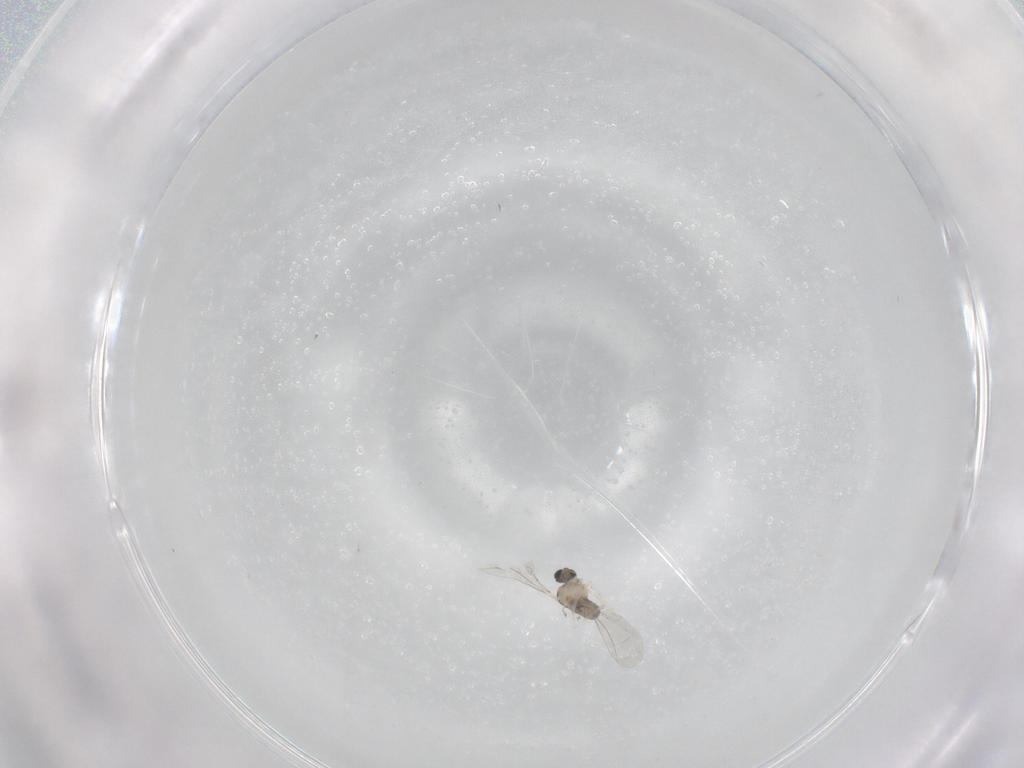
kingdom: Animalia
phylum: Arthropoda
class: Insecta
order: Diptera
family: Cecidomyiidae
